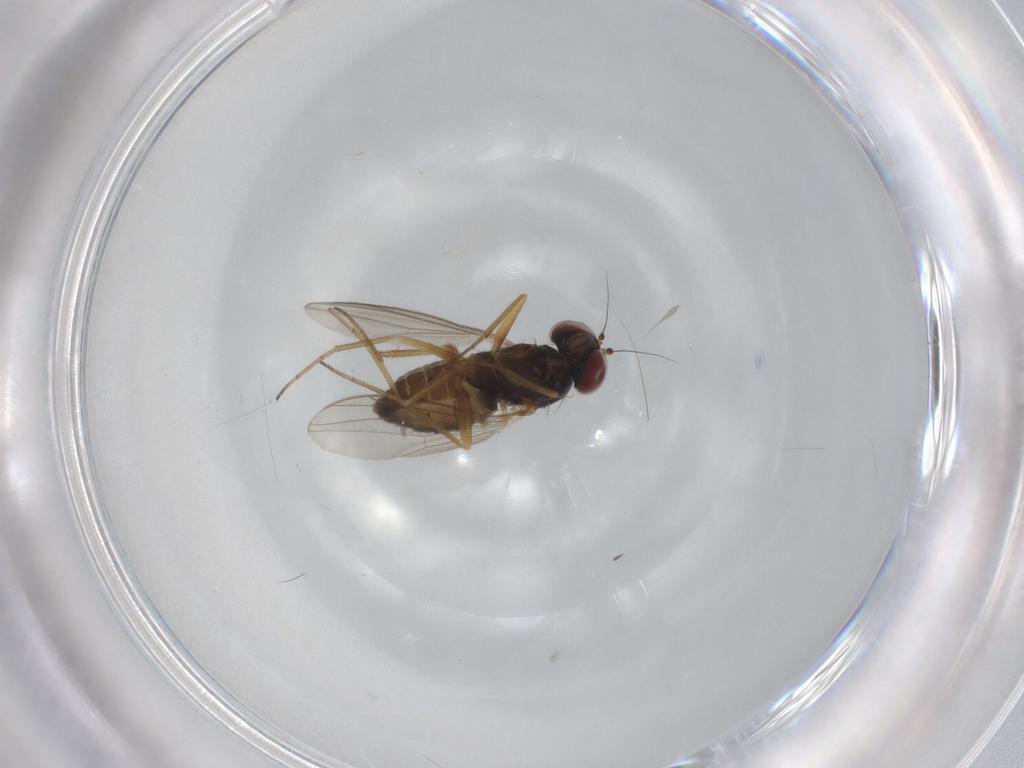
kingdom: Animalia
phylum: Arthropoda
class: Insecta
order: Diptera
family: Dolichopodidae
